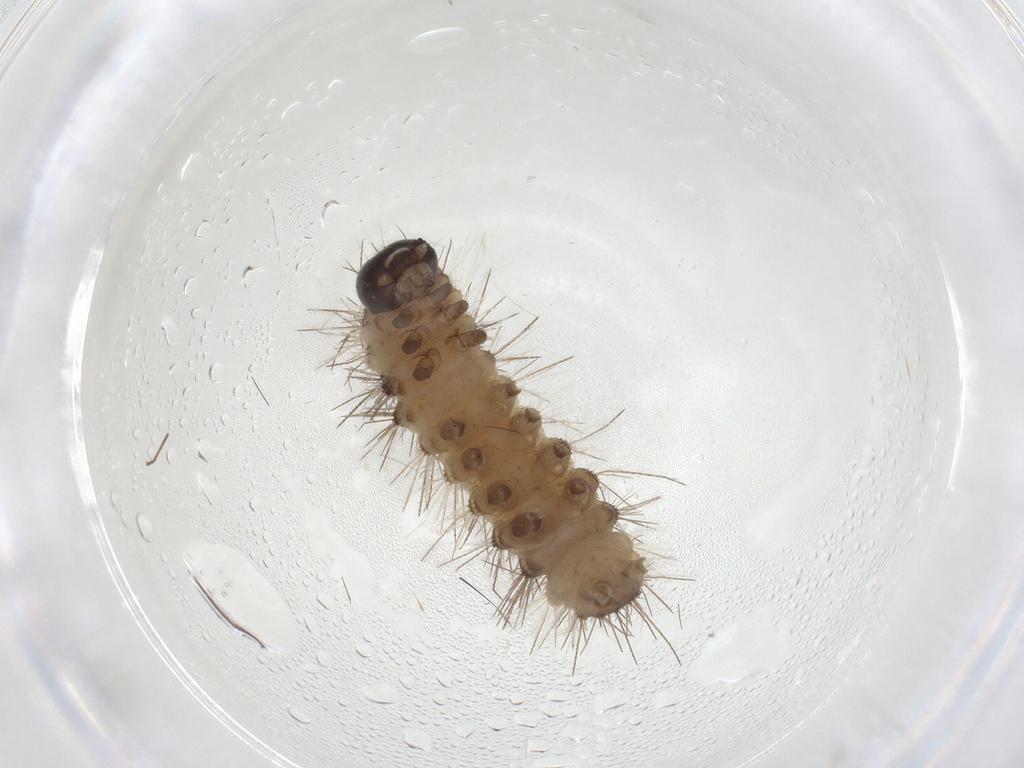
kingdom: Animalia
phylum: Arthropoda
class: Insecta
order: Lepidoptera
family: Erebidae
